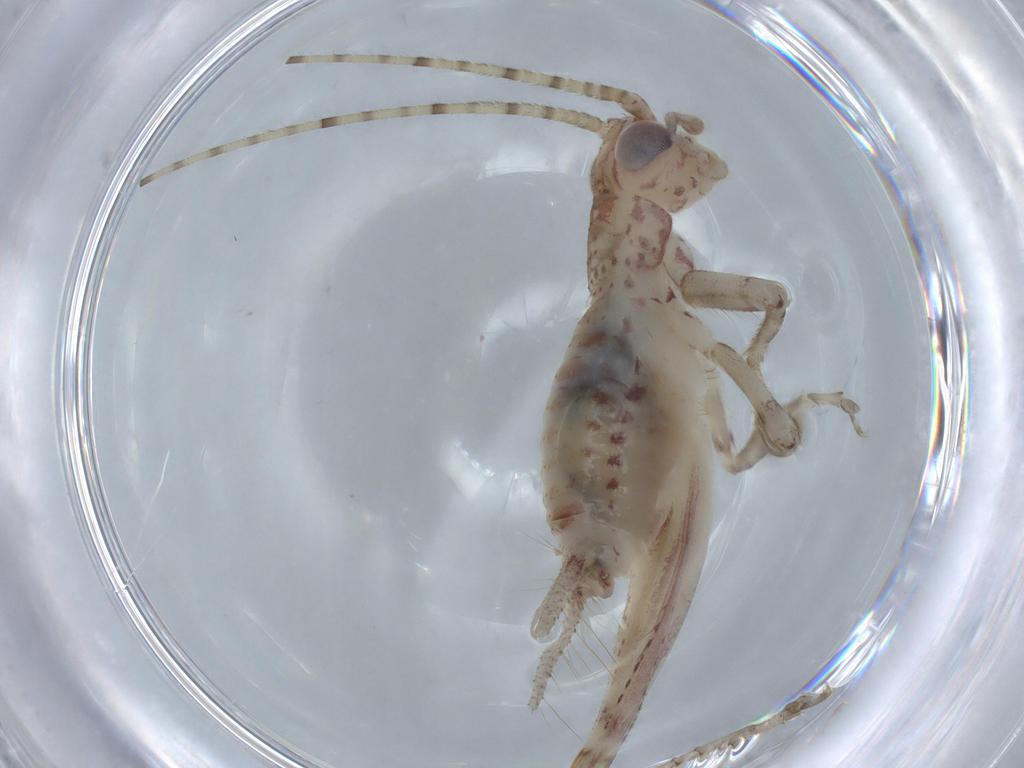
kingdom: Animalia
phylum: Arthropoda
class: Insecta
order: Orthoptera
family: Trigonidiidae
